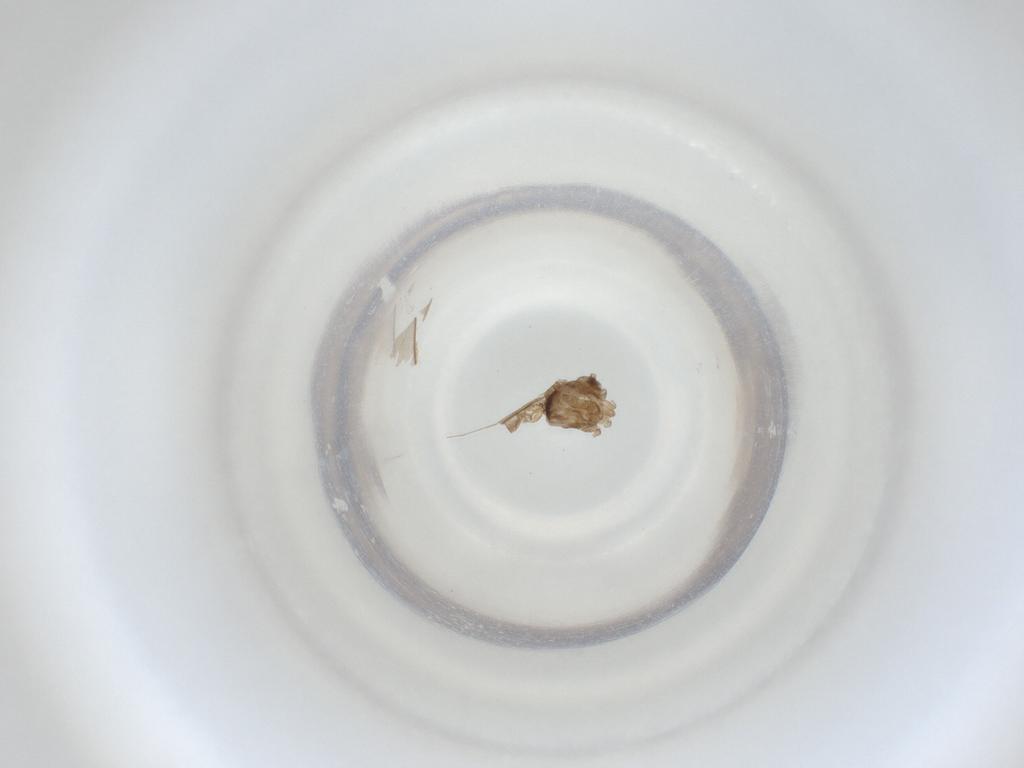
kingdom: Animalia
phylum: Arthropoda
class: Insecta
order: Diptera
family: Cecidomyiidae
